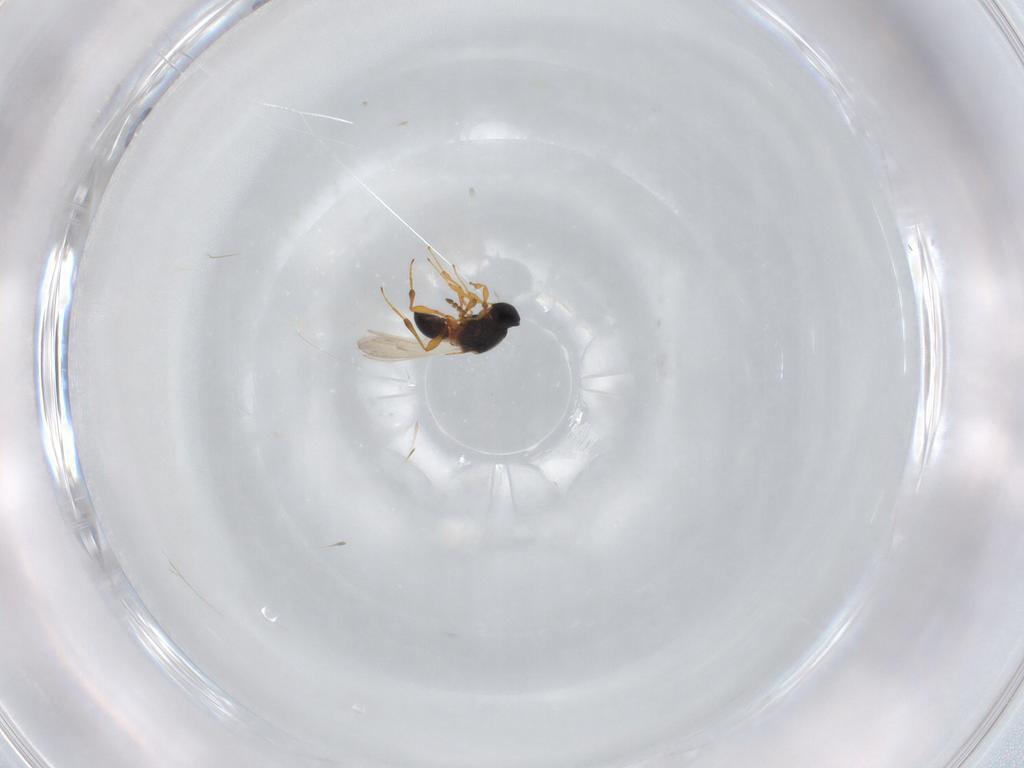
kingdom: Animalia
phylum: Arthropoda
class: Insecta
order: Hymenoptera
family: Platygastridae
